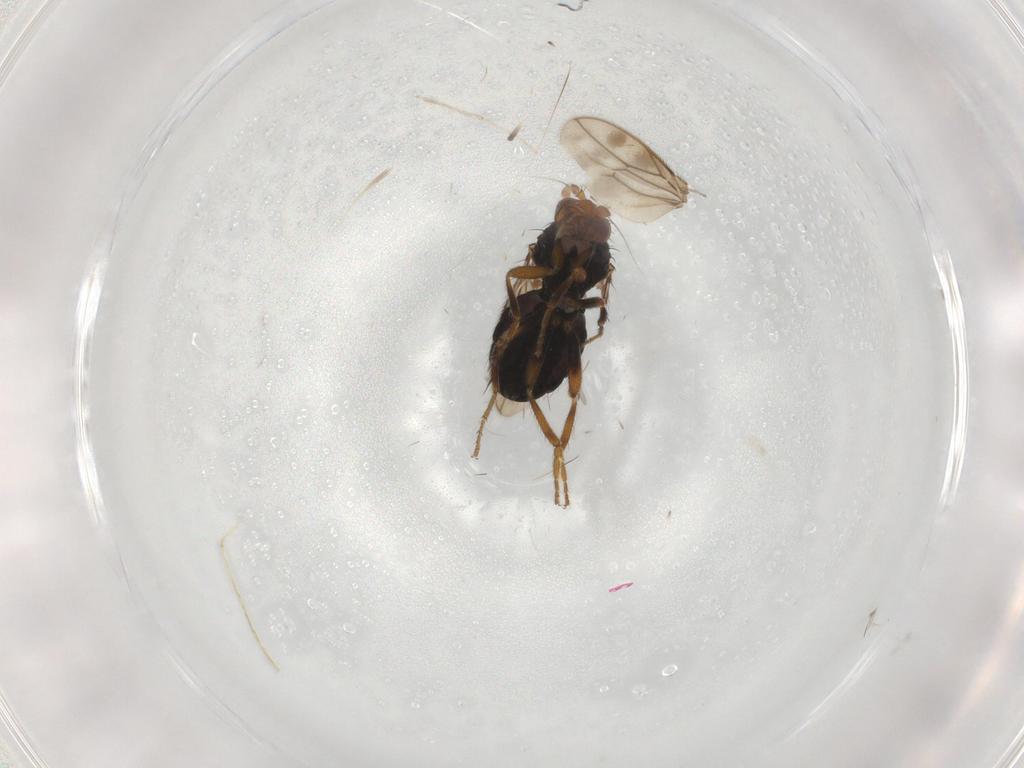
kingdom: Animalia
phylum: Arthropoda
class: Insecta
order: Diptera
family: Sphaeroceridae
